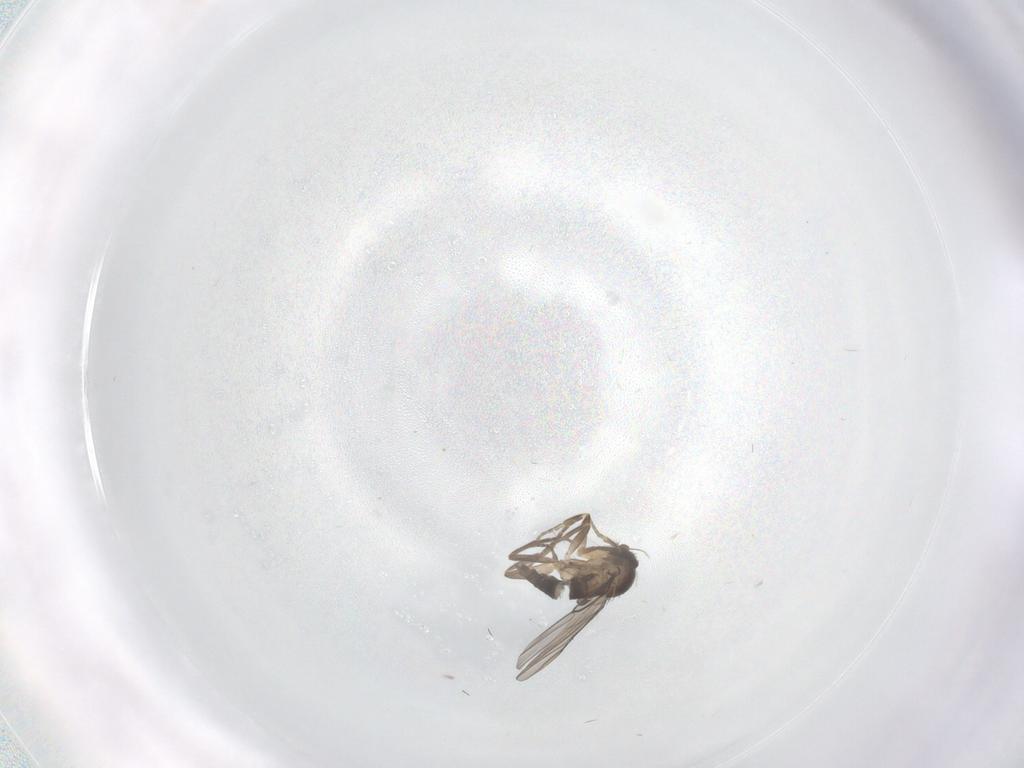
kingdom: Animalia
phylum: Arthropoda
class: Insecta
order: Diptera
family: Phoridae
